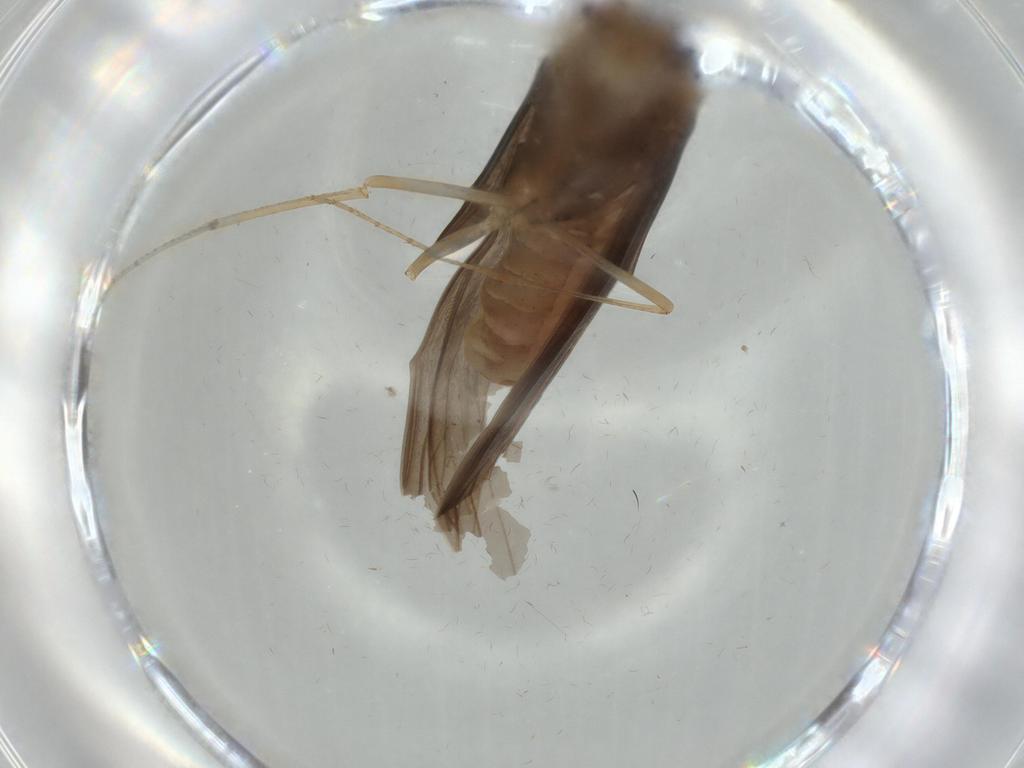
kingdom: Animalia
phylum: Arthropoda
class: Insecta
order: Trichoptera
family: Leptoceridae
